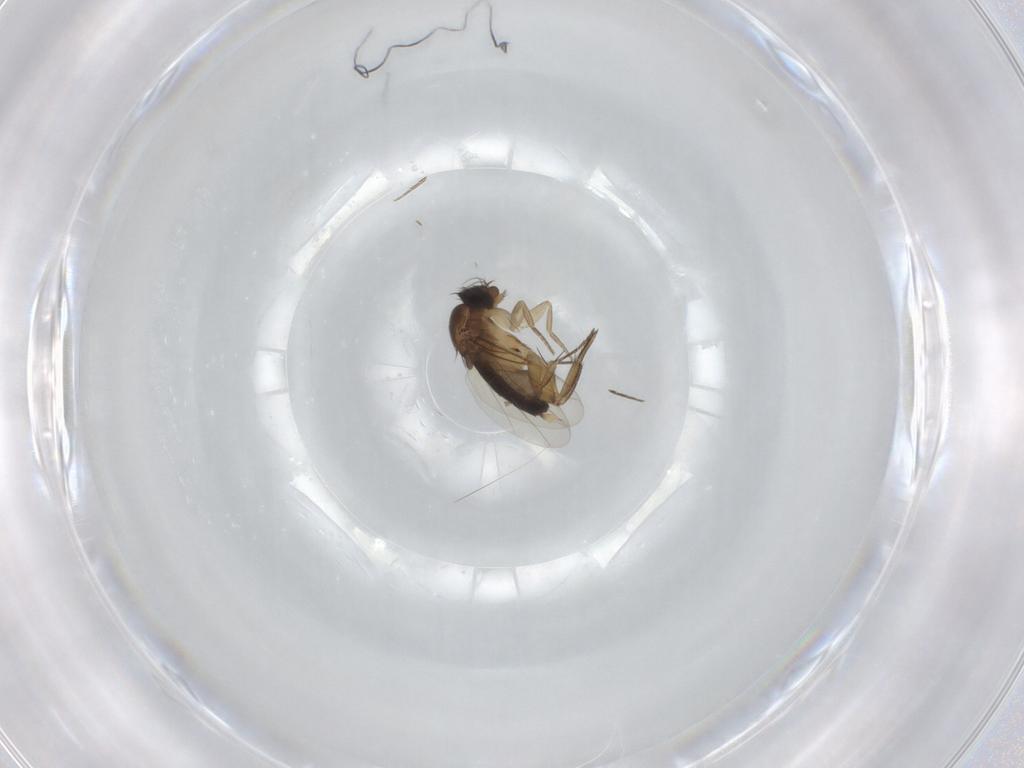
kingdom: Animalia
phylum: Arthropoda
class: Insecta
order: Diptera
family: Phoridae
